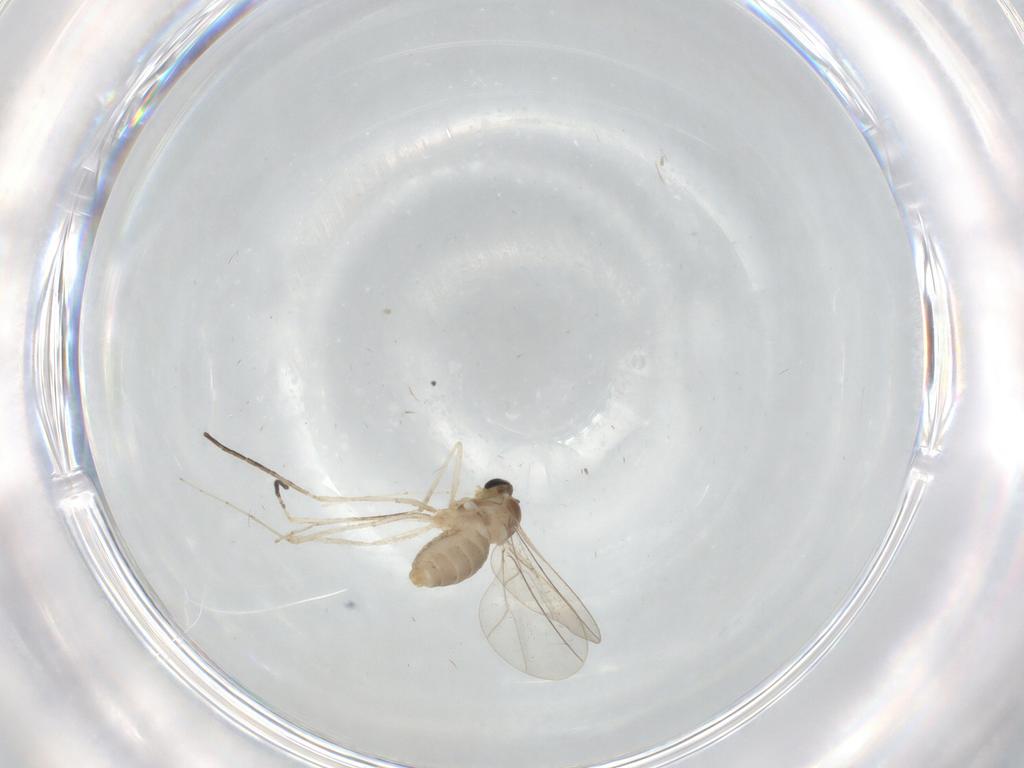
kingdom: Animalia
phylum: Arthropoda
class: Insecta
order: Diptera
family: Cecidomyiidae
